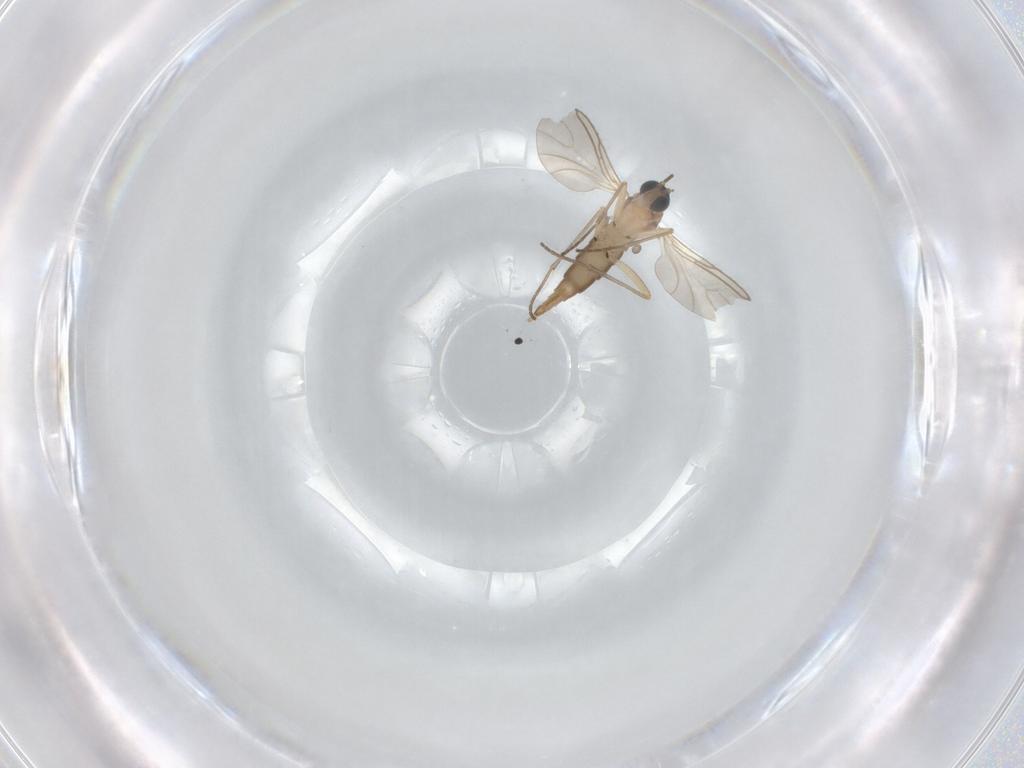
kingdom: Animalia
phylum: Arthropoda
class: Insecta
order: Diptera
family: Sciaridae
